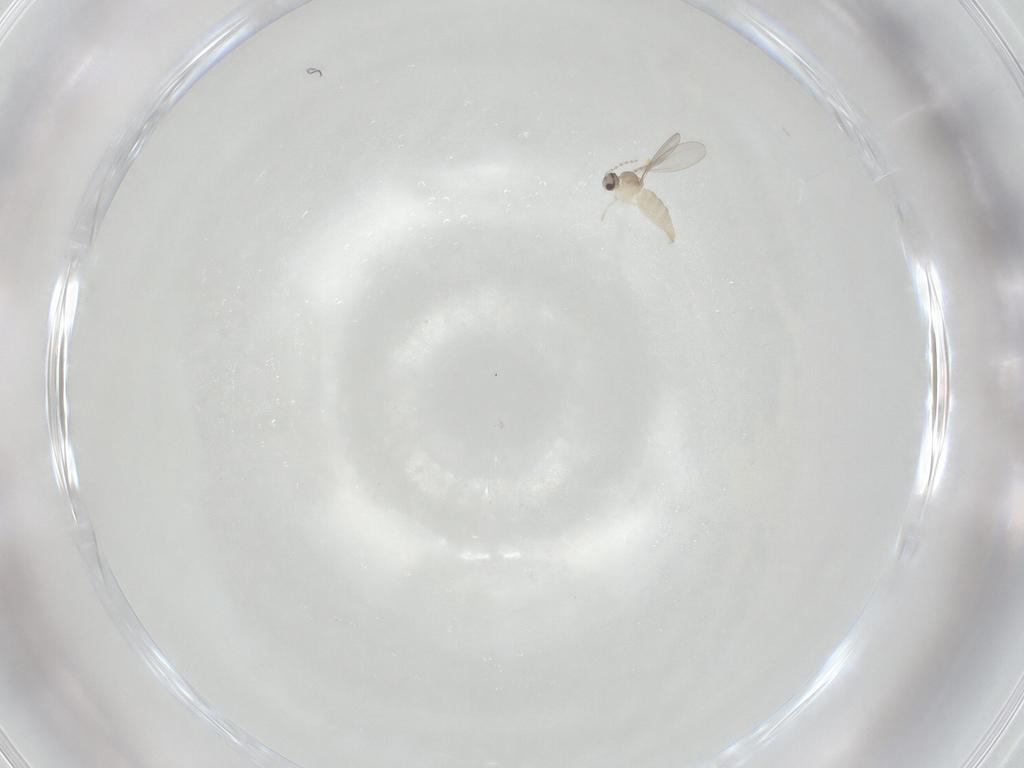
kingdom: Animalia
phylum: Arthropoda
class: Insecta
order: Diptera
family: Cecidomyiidae
